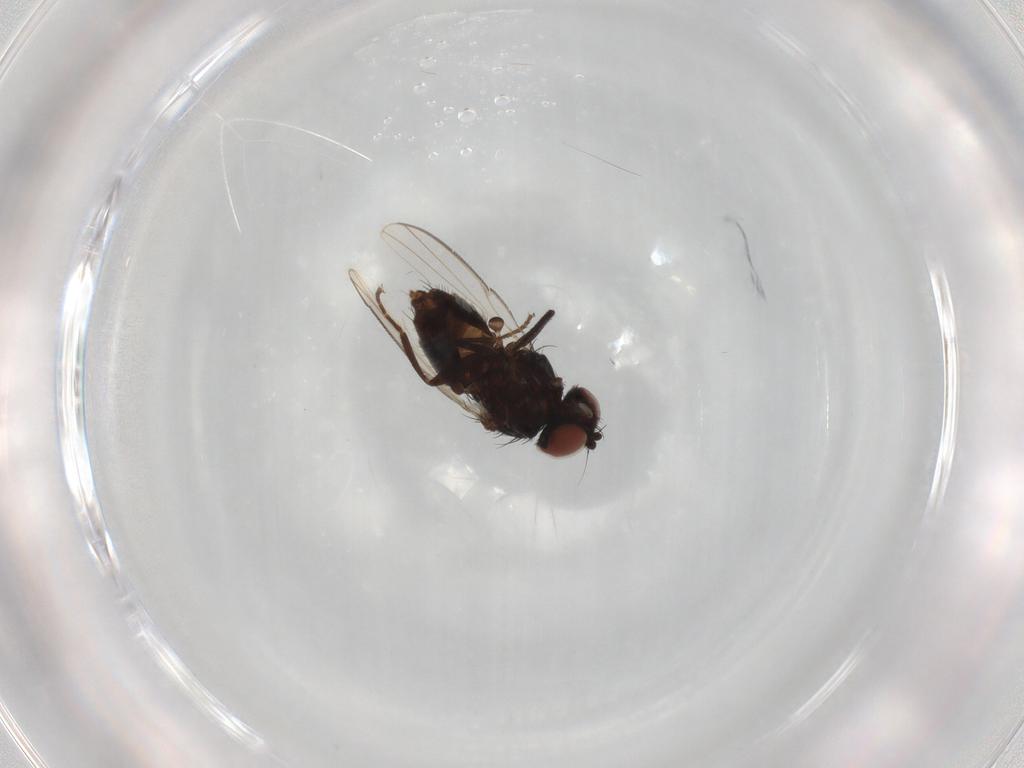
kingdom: Animalia
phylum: Arthropoda
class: Insecta
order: Diptera
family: Milichiidae
